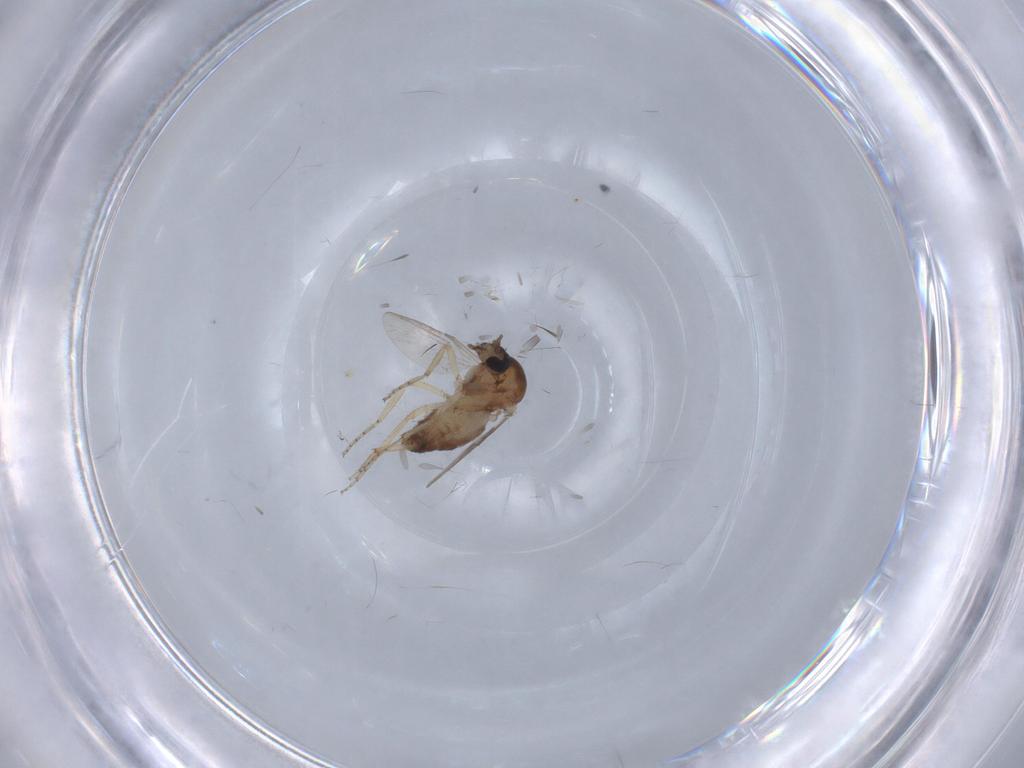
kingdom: Animalia
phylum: Arthropoda
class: Insecta
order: Diptera
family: Ceratopogonidae
